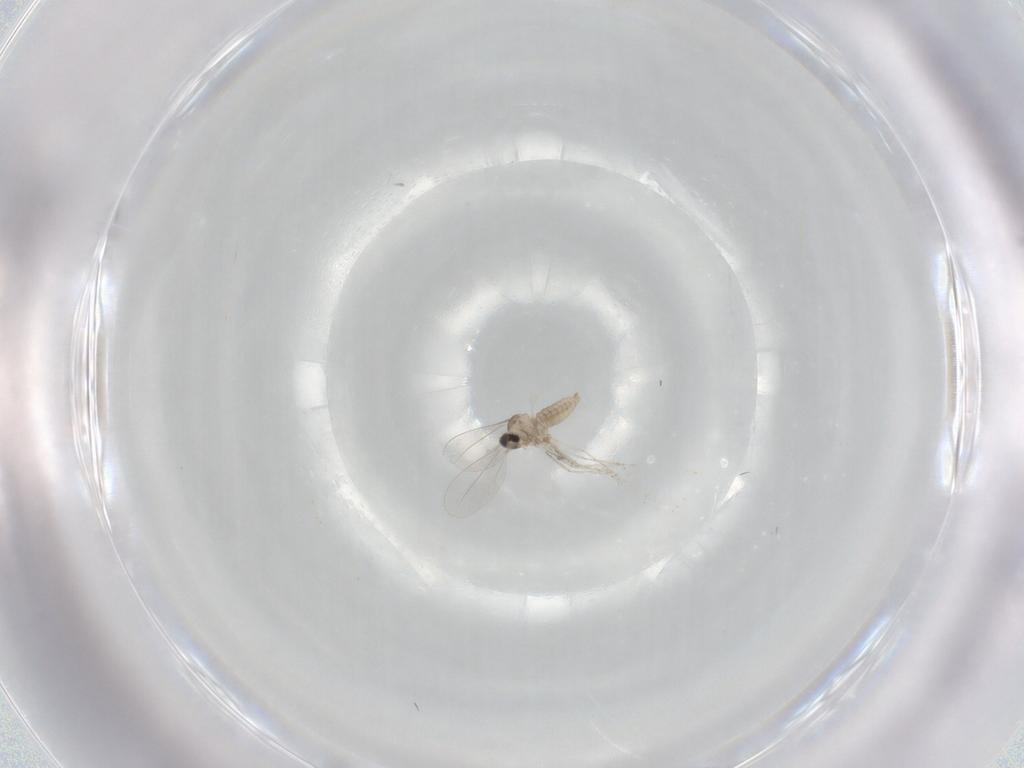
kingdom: Animalia
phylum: Arthropoda
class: Insecta
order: Diptera
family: Cecidomyiidae
